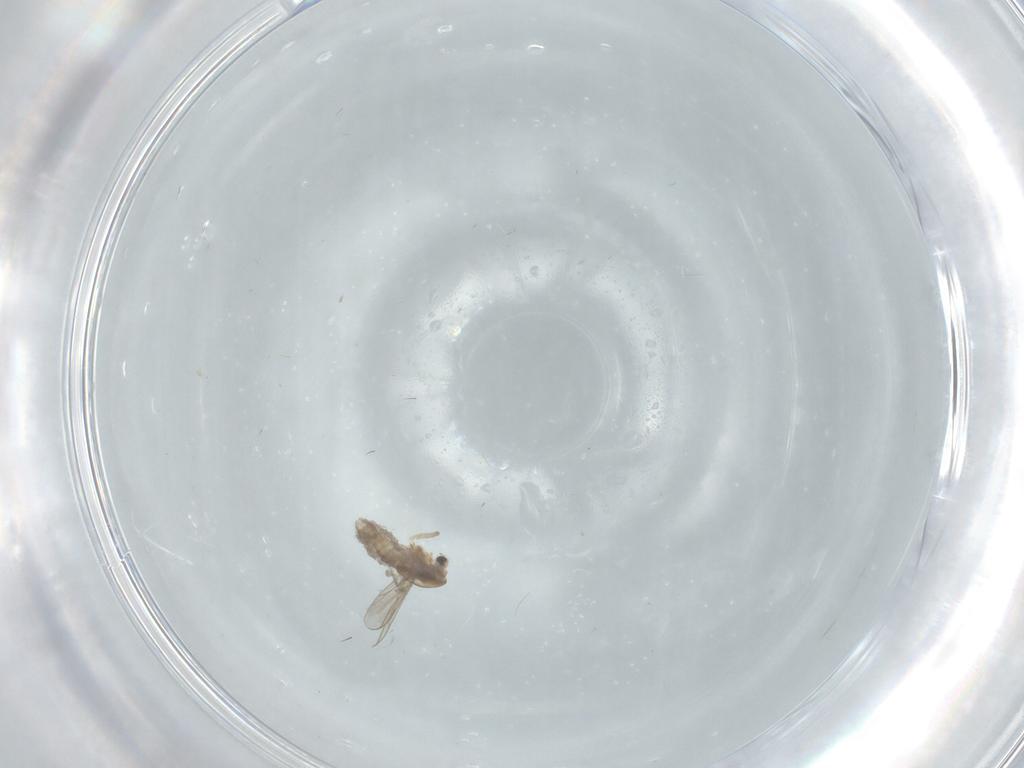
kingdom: Animalia
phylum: Arthropoda
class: Insecta
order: Diptera
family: Chironomidae
